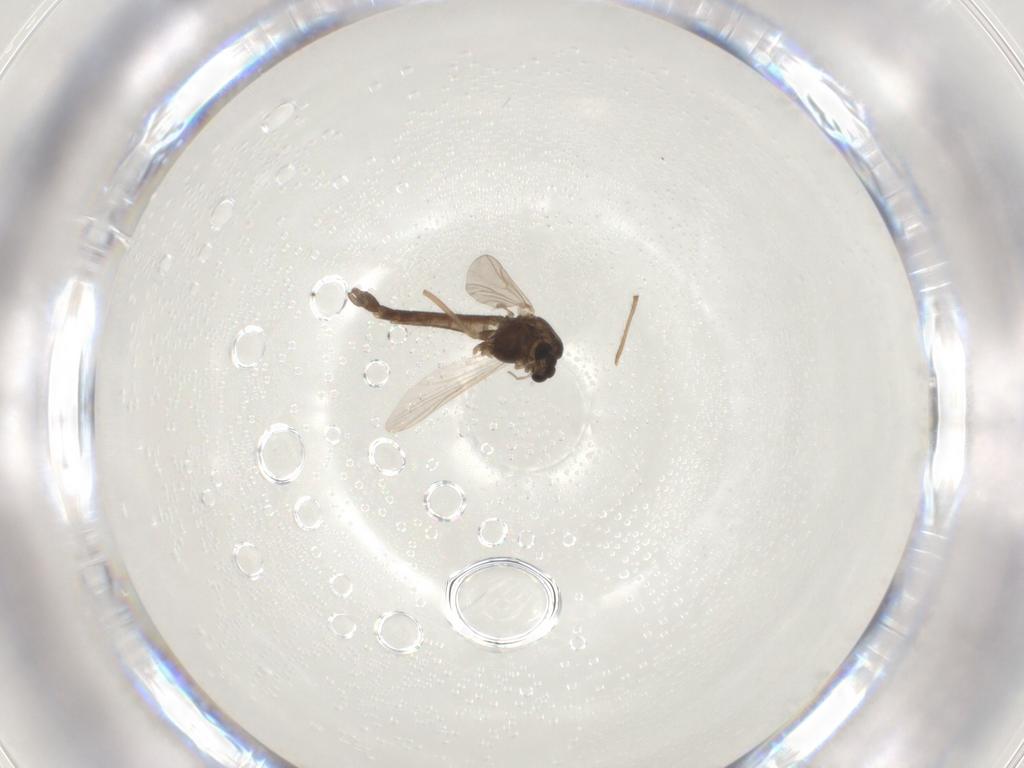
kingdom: Animalia
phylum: Arthropoda
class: Insecta
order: Diptera
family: Chironomidae
